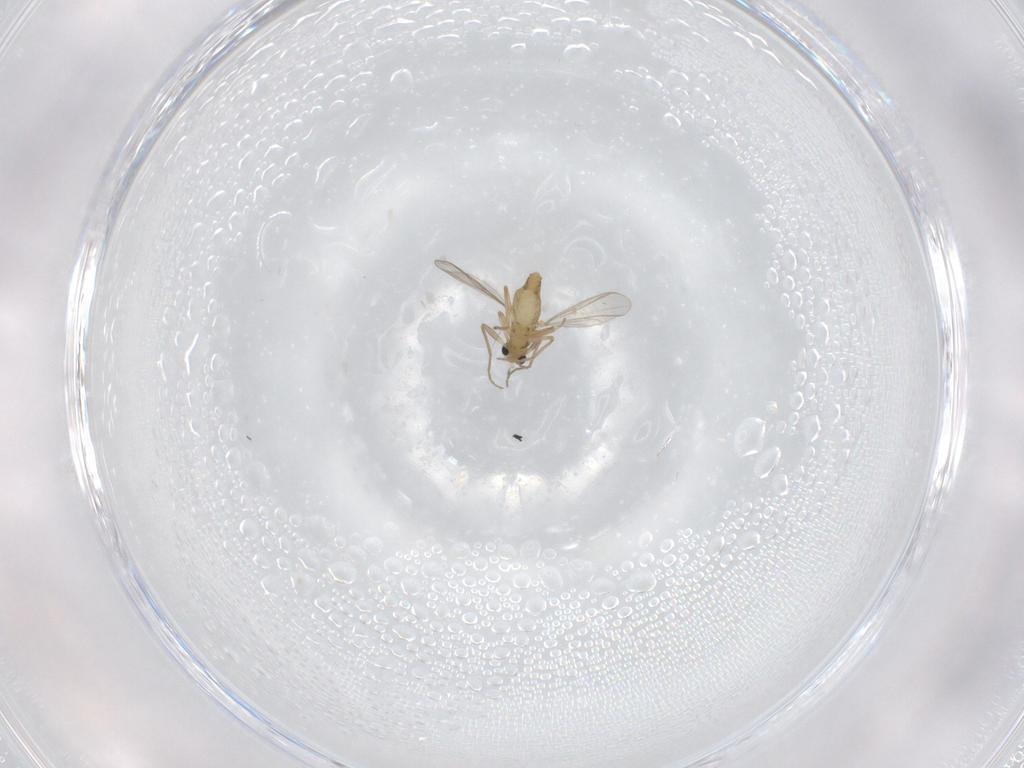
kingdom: Animalia
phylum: Arthropoda
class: Insecta
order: Diptera
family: Chironomidae
